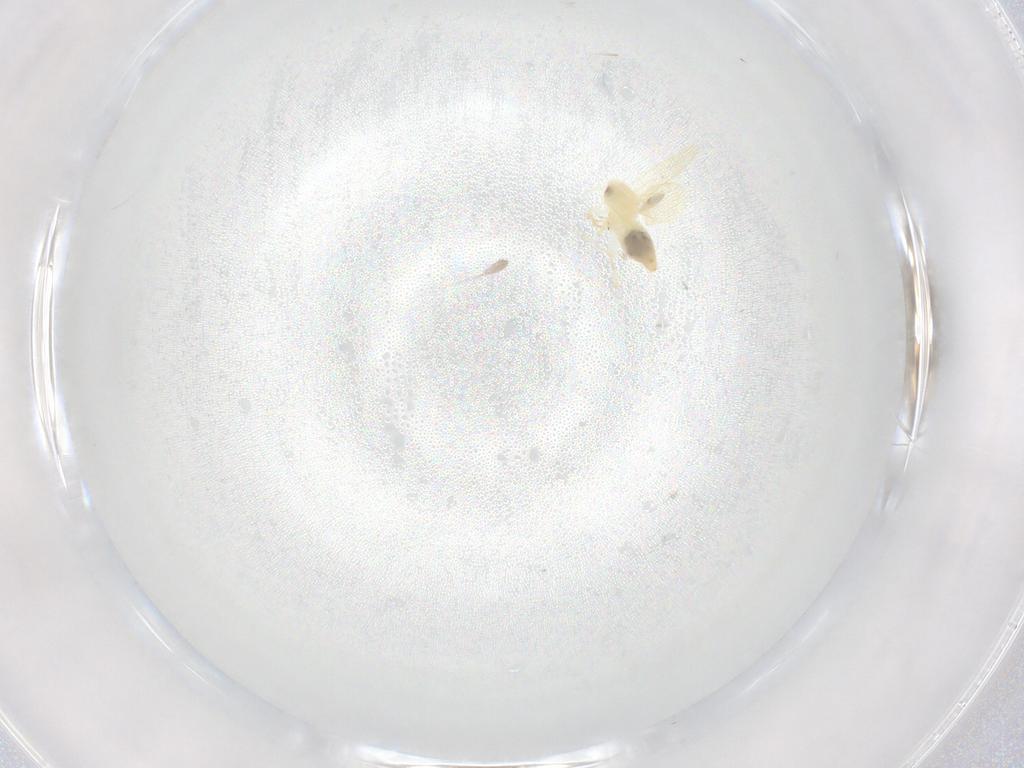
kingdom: Animalia
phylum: Arthropoda
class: Insecta
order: Hemiptera
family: Aleyrodidae
